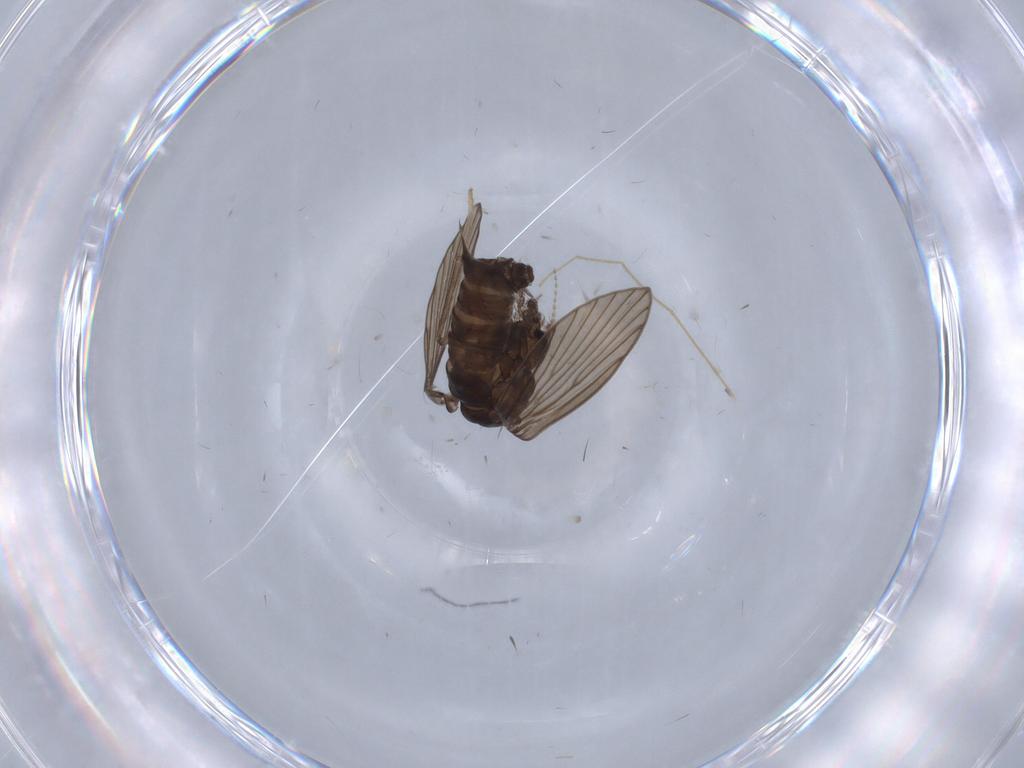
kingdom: Animalia
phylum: Arthropoda
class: Insecta
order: Diptera
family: Psychodidae
